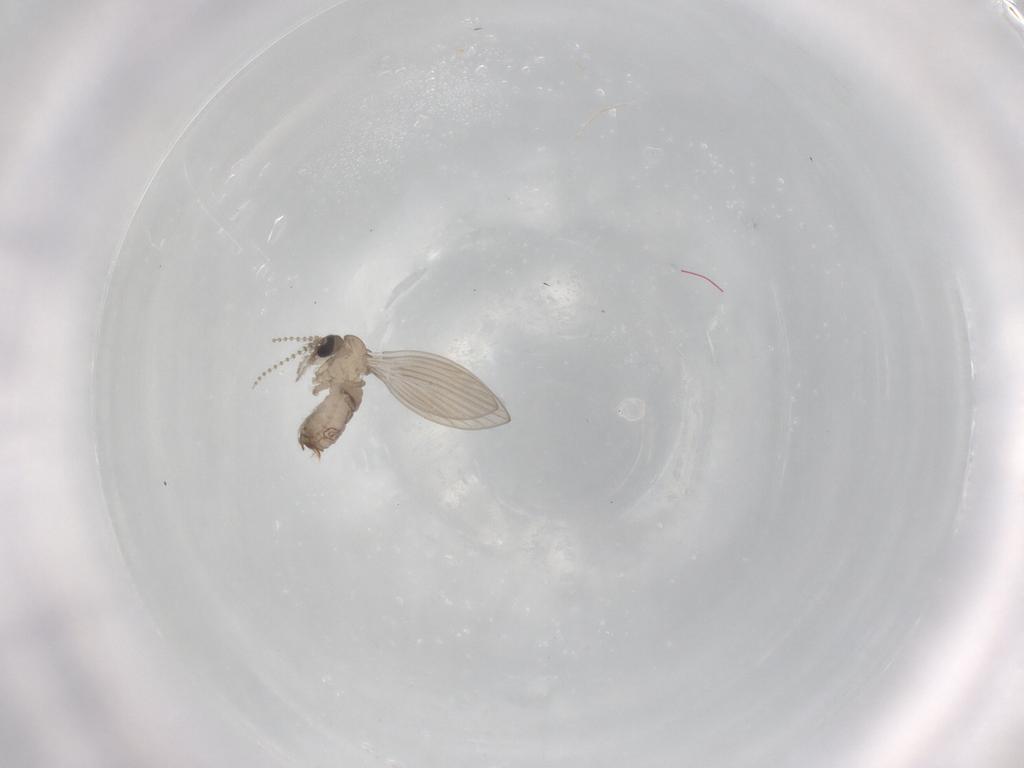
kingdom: Animalia
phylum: Arthropoda
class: Insecta
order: Diptera
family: Psychodidae
